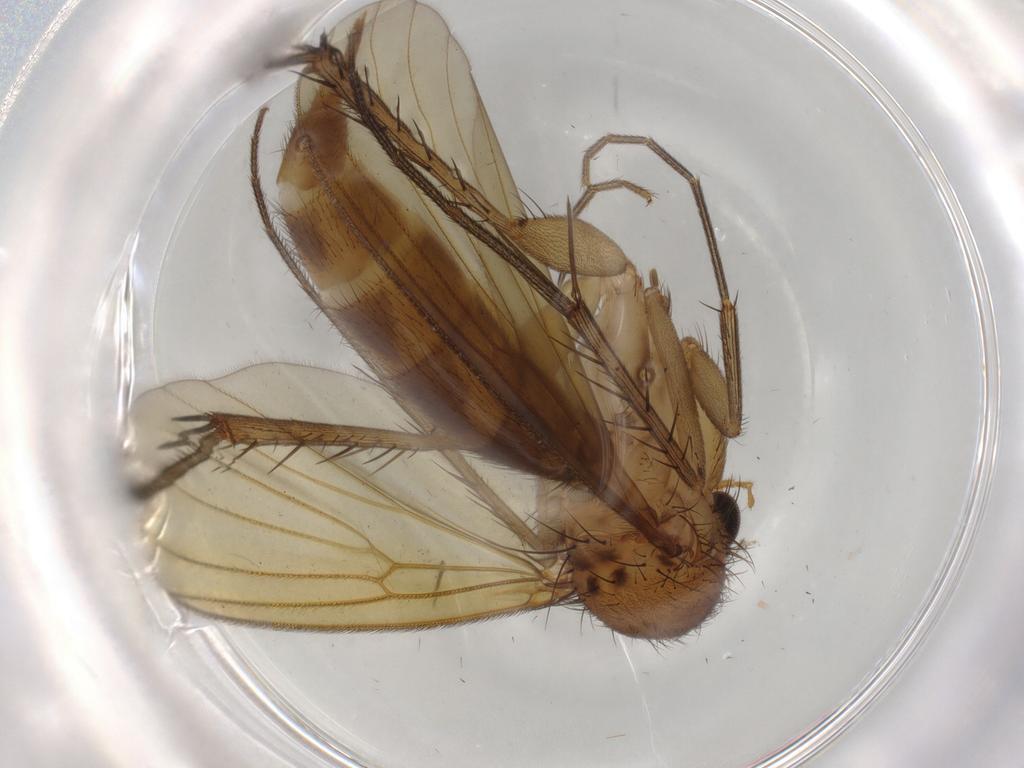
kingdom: Animalia
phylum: Arthropoda
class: Insecta
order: Diptera
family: Mycetophilidae
